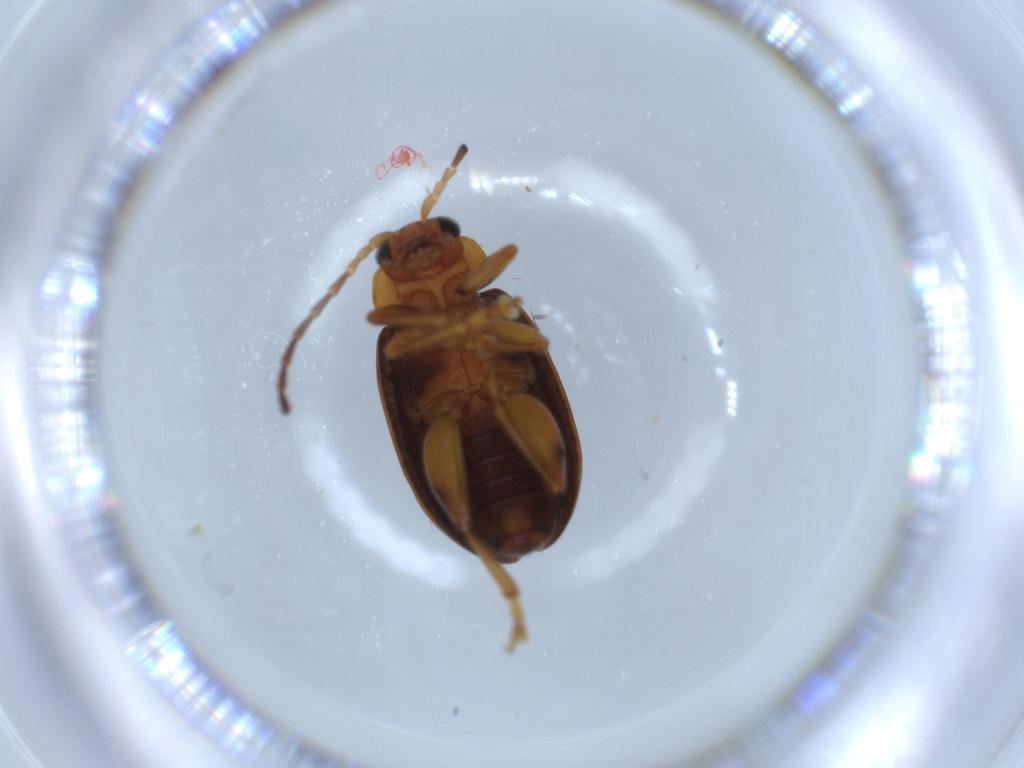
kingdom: Animalia
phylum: Arthropoda
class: Insecta
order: Coleoptera
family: Chrysomelidae
